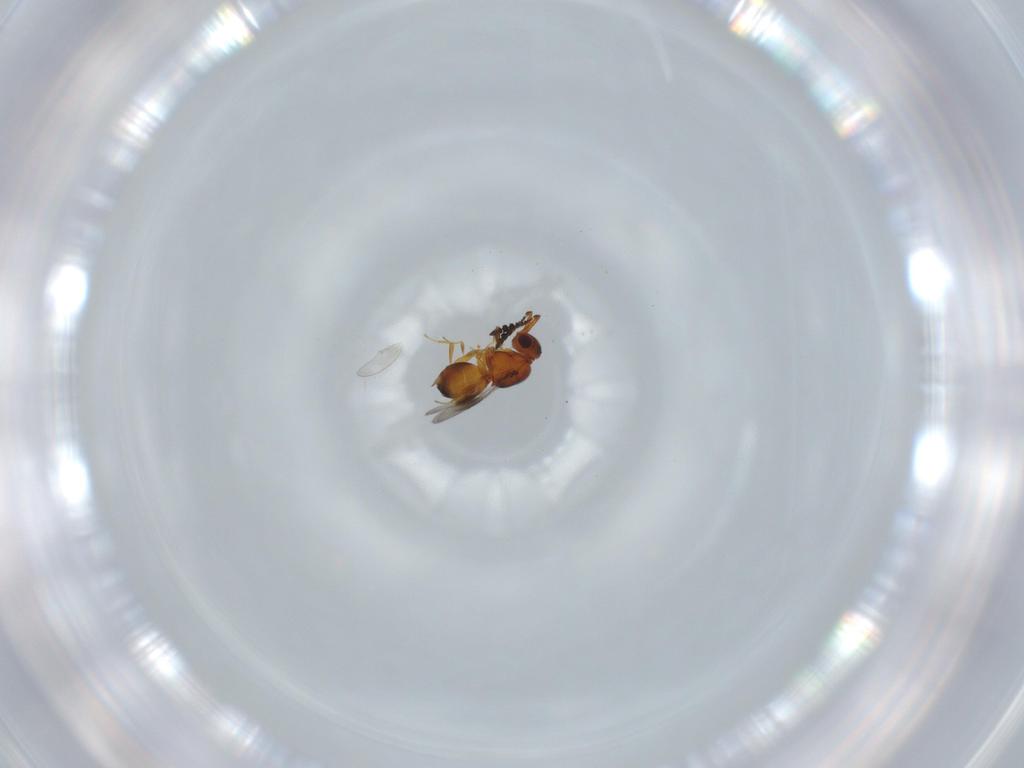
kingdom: Animalia
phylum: Arthropoda
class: Insecta
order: Hymenoptera
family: Ceraphronidae
